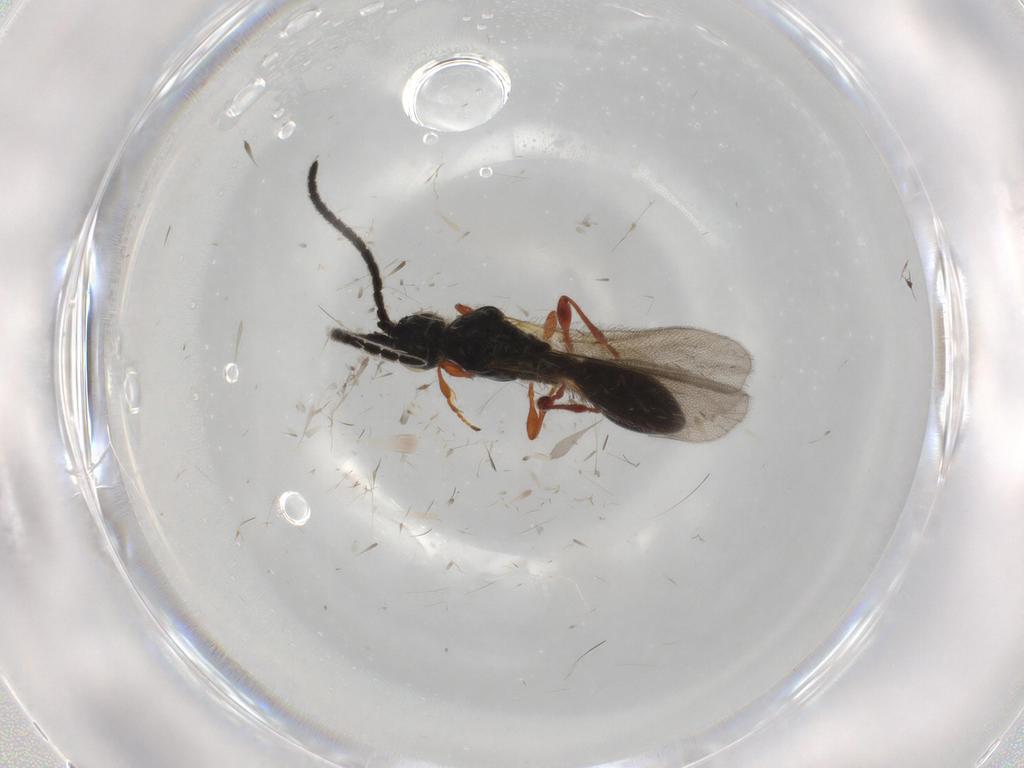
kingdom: Animalia
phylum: Arthropoda
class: Insecta
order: Hymenoptera
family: Diapriidae
